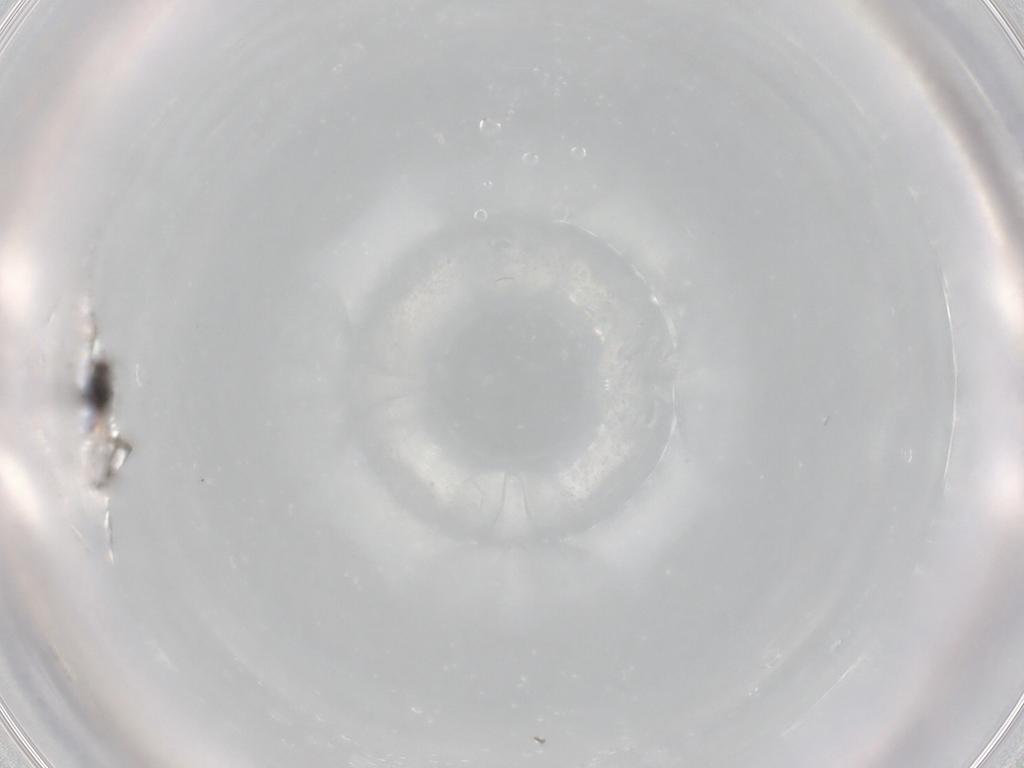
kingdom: Animalia
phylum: Arthropoda
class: Insecta
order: Diptera
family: Sciaridae
